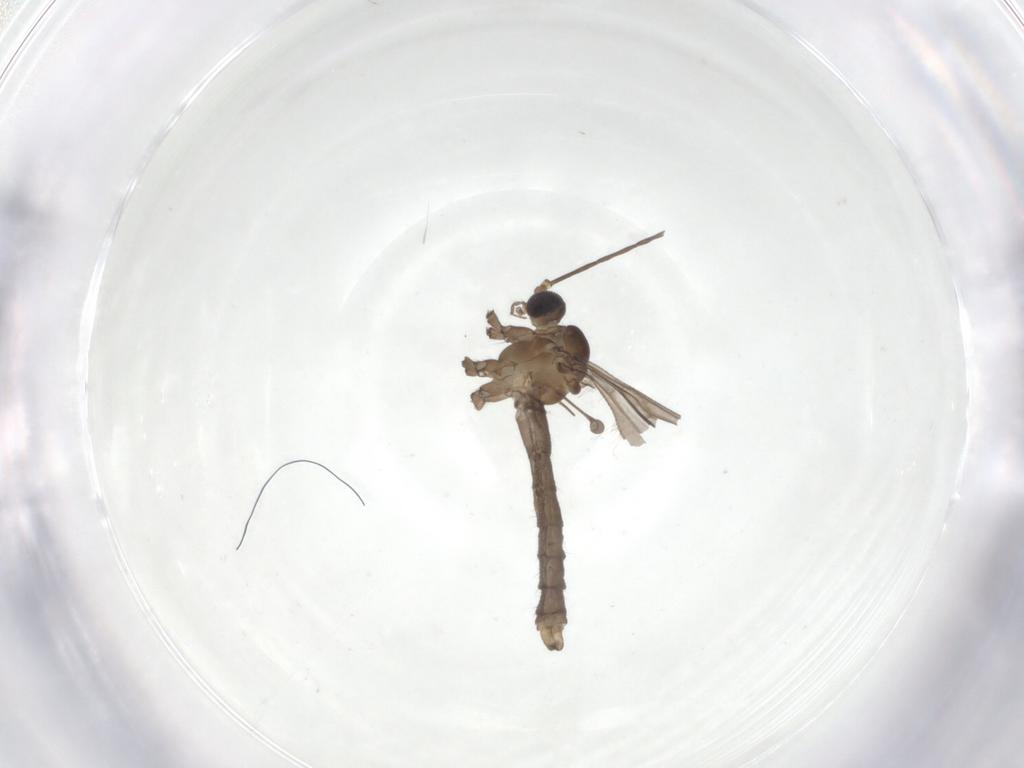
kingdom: Animalia
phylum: Arthropoda
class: Insecta
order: Diptera
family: Limoniidae
